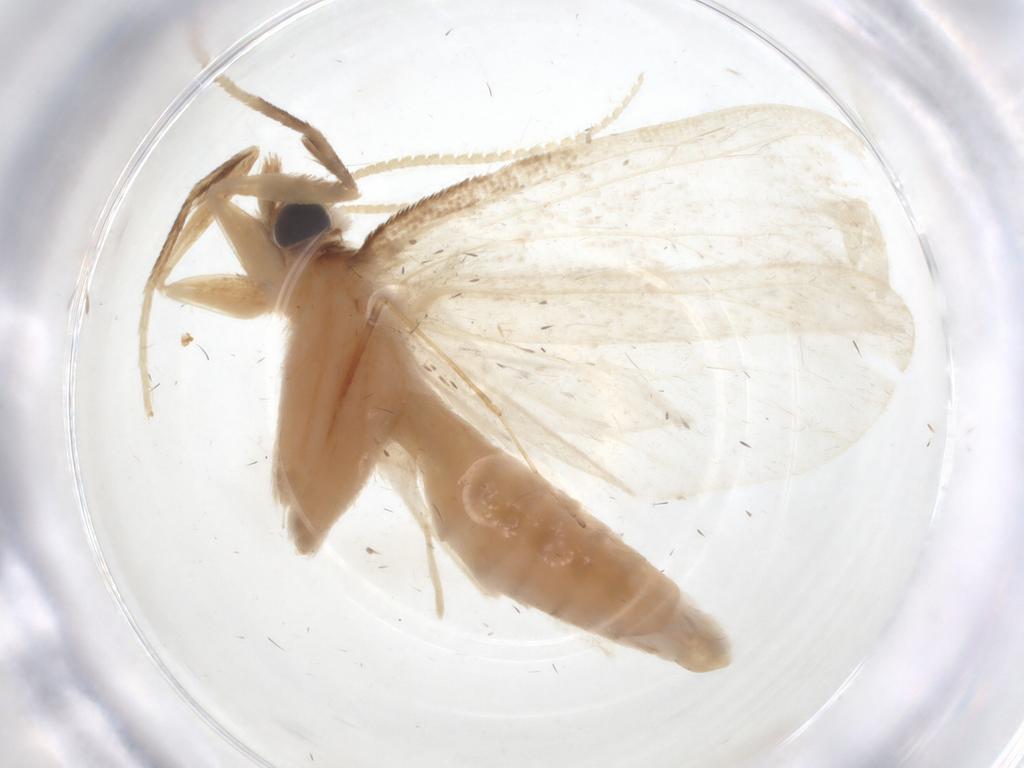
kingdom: Animalia
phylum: Arthropoda
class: Insecta
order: Lepidoptera
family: Crambidae
